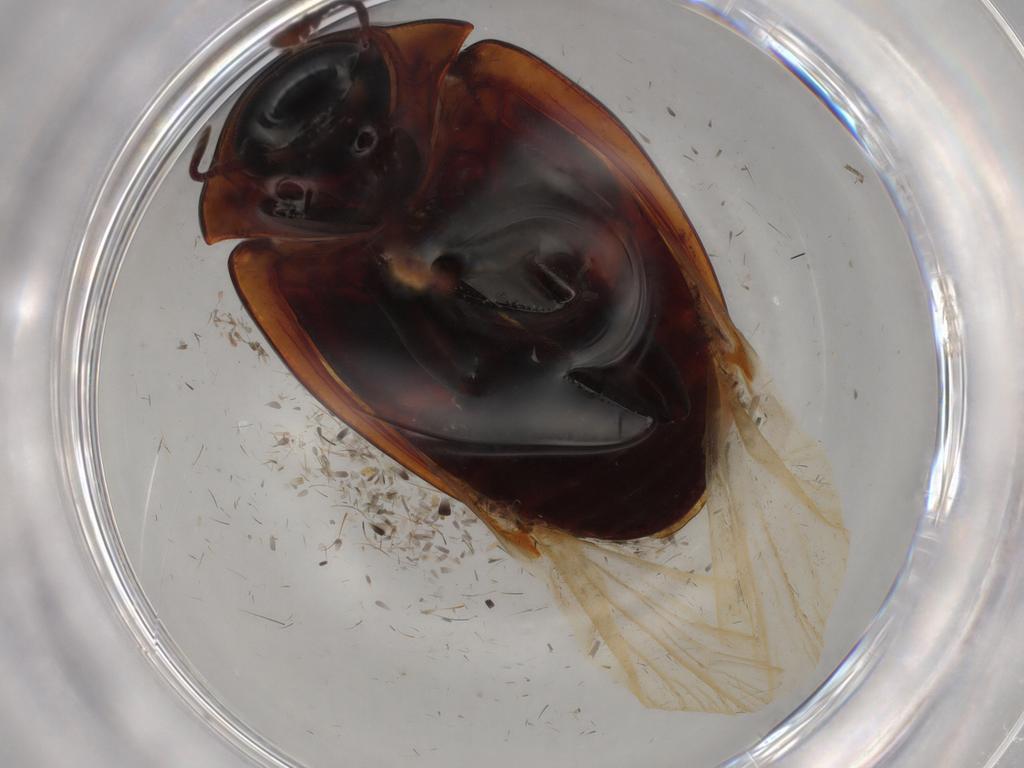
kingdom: Animalia
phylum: Arthropoda
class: Insecta
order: Coleoptera
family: Zopheridae
